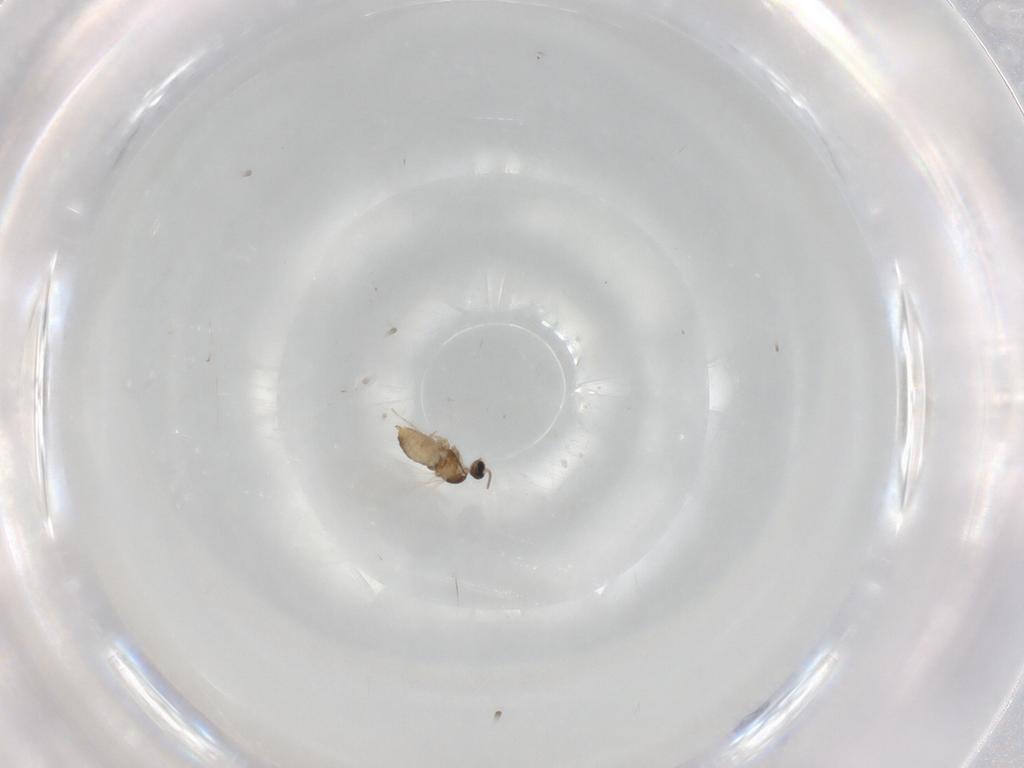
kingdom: Animalia
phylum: Arthropoda
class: Insecta
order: Diptera
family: Cecidomyiidae
